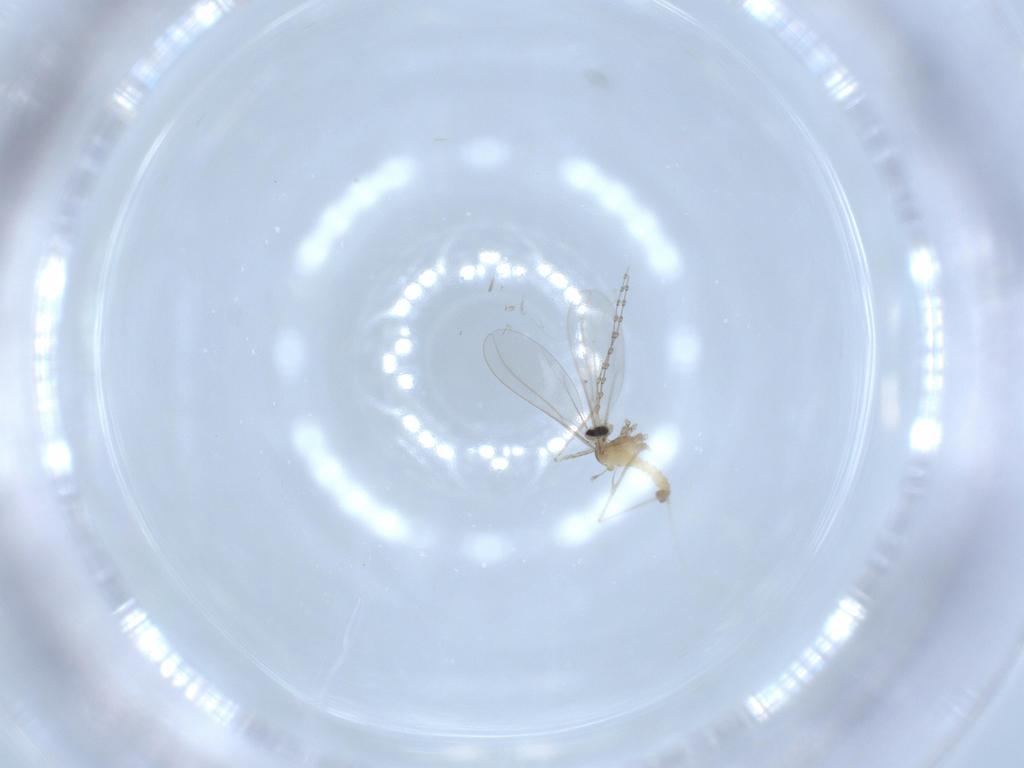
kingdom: Animalia
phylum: Arthropoda
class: Insecta
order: Diptera
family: Cecidomyiidae
